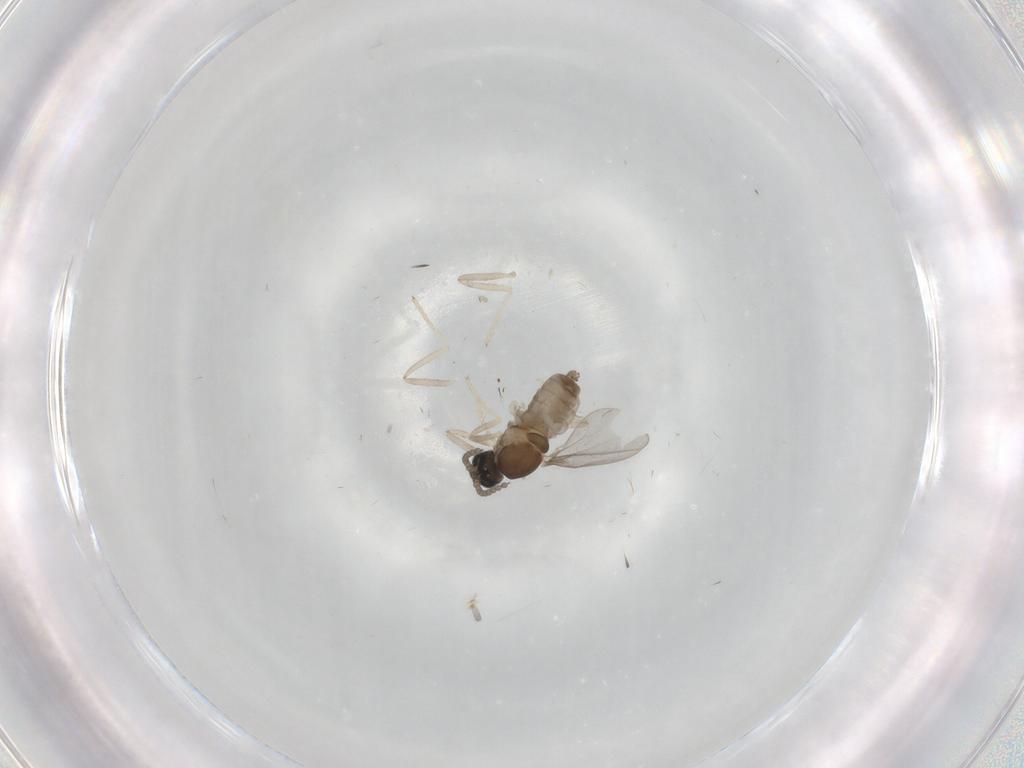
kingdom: Animalia
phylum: Arthropoda
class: Insecta
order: Diptera
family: Cecidomyiidae
